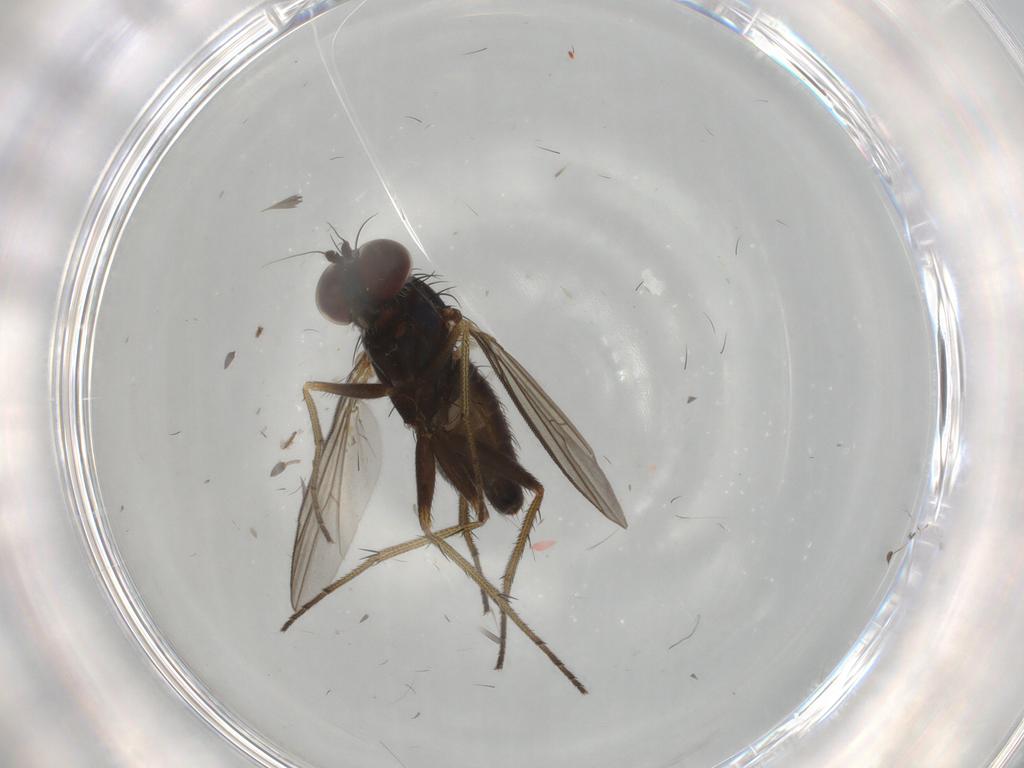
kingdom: Animalia
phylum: Arthropoda
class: Insecta
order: Diptera
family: Dolichopodidae
